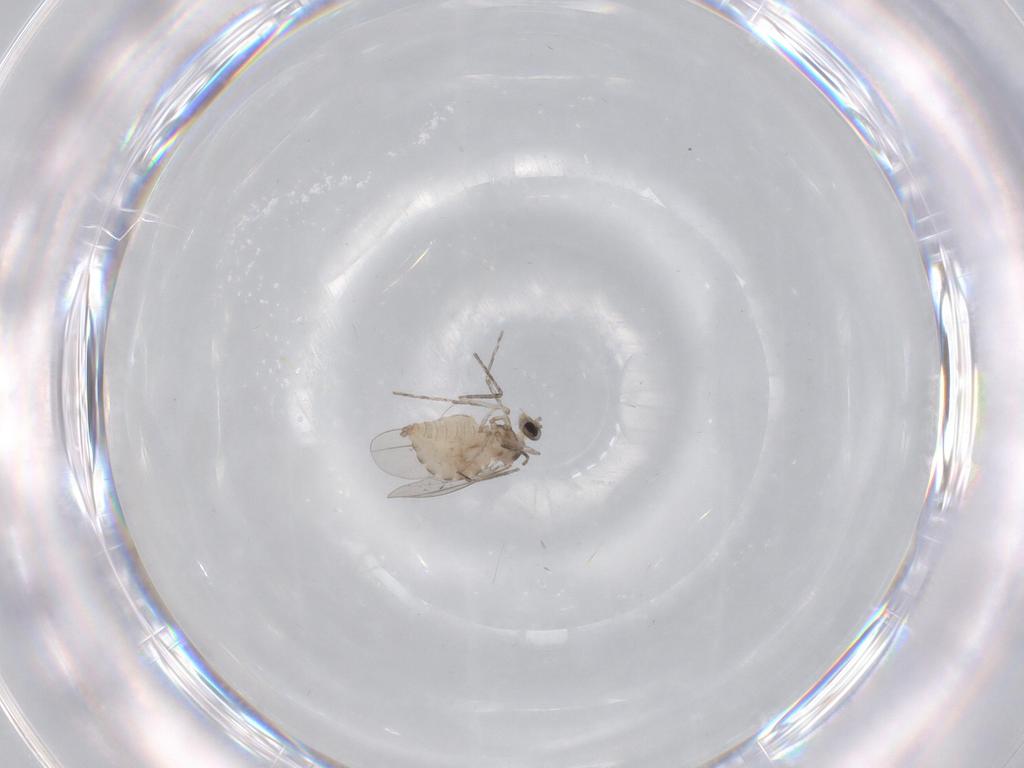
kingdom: Animalia
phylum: Arthropoda
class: Insecta
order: Diptera
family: Cecidomyiidae
